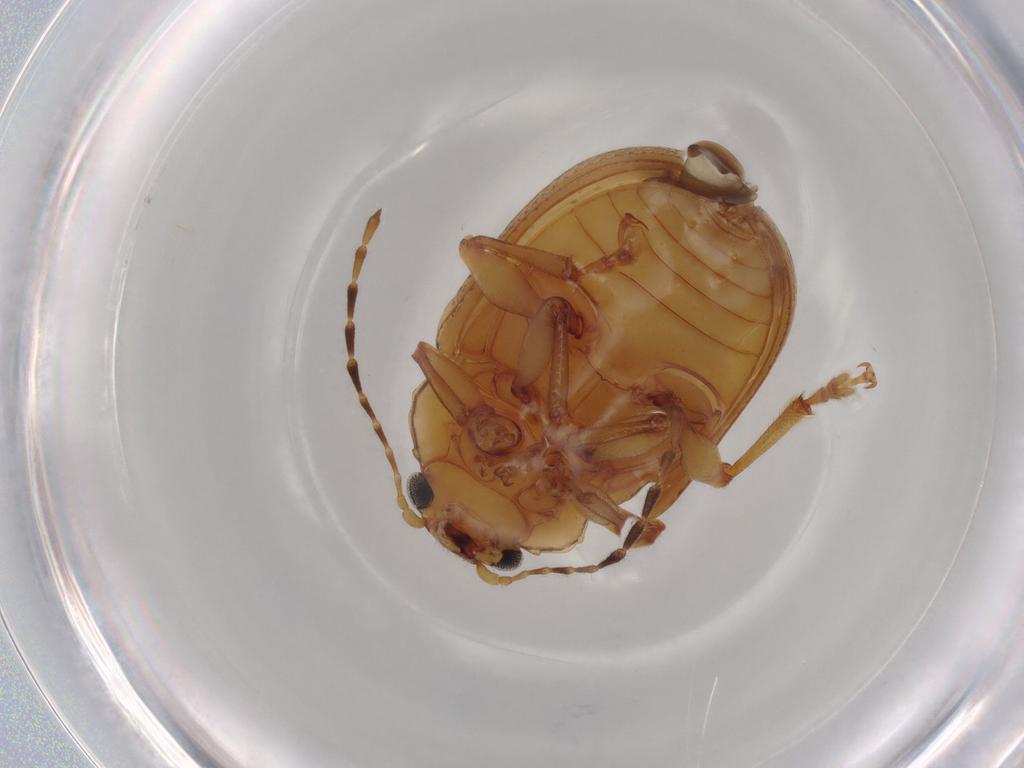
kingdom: Animalia
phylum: Arthropoda
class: Insecta
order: Coleoptera
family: Chrysomelidae
